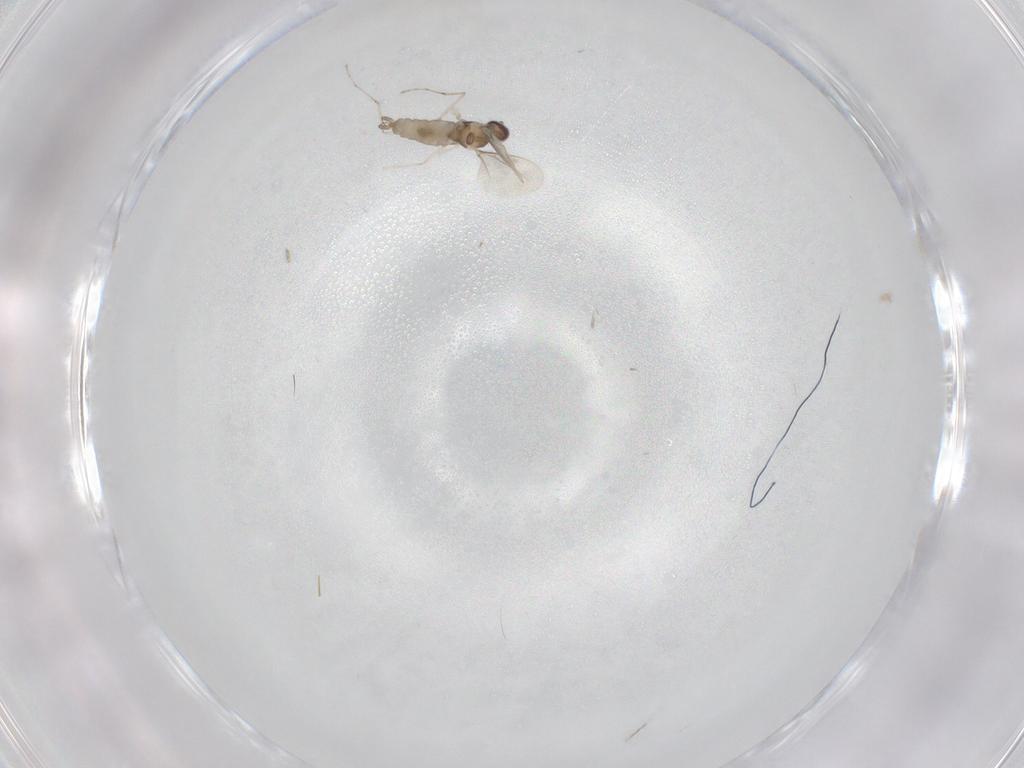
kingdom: Animalia
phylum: Arthropoda
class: Insecta
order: Diptera
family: Cecidomyiidae
